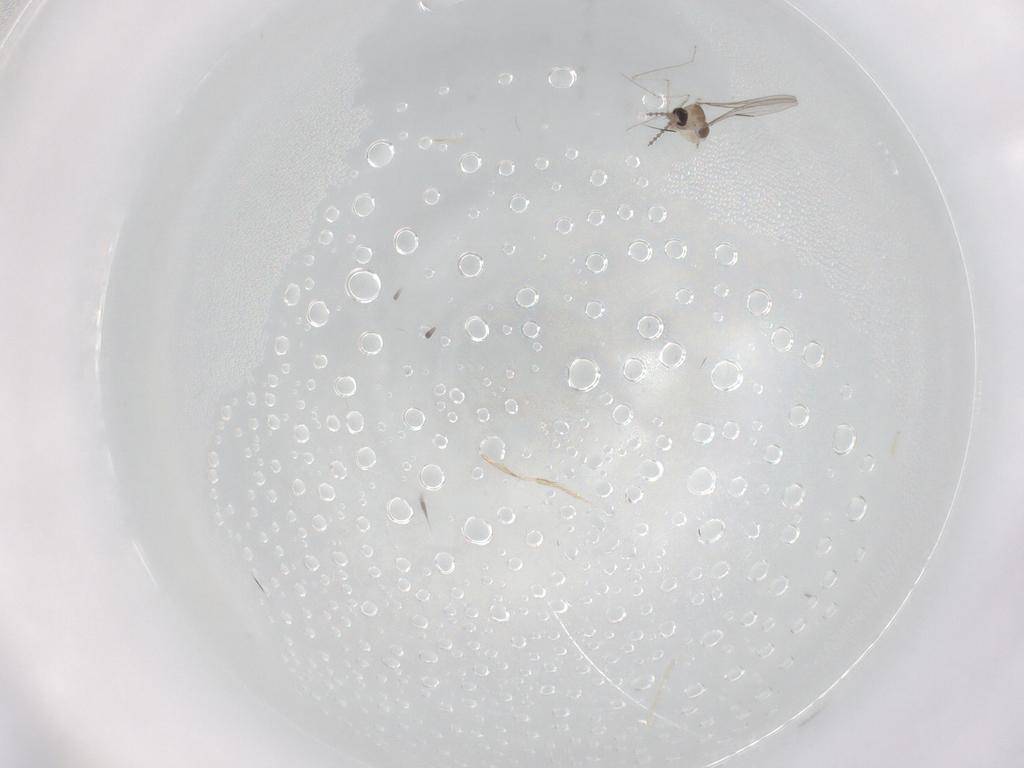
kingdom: Animalia
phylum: Arthropoda
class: Insecta
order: Diptera
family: Cecidomyiidae
